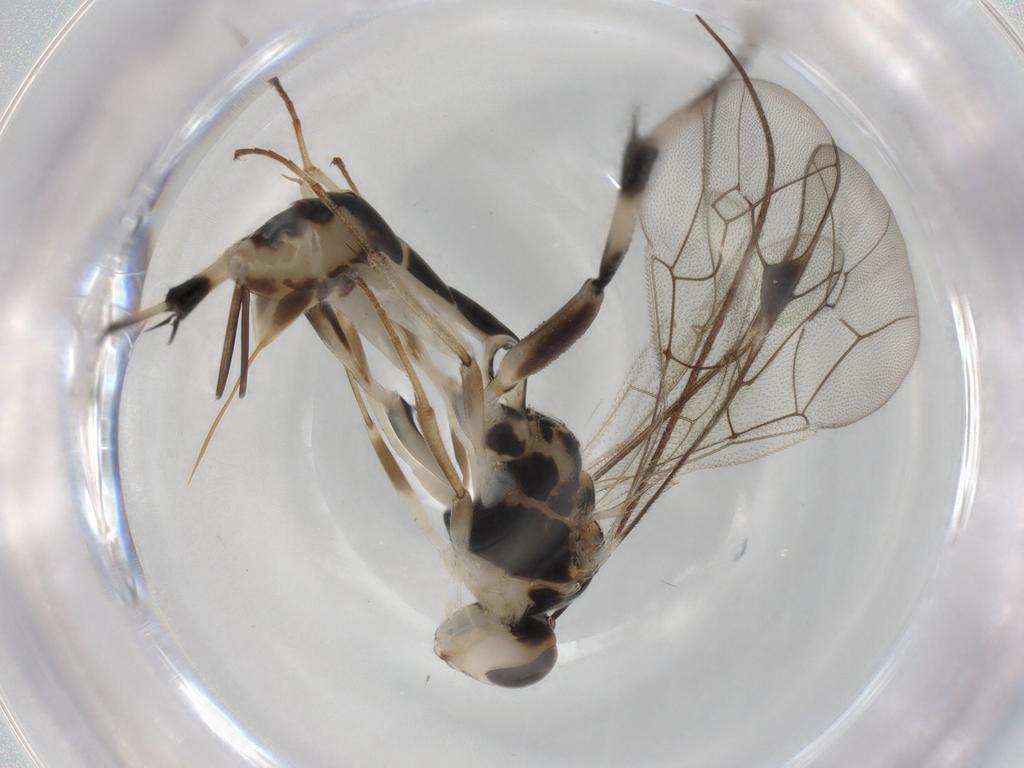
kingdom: Animalia
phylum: Arthropoda
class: Insecta
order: Hymenoptera
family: Ichneumonidae
